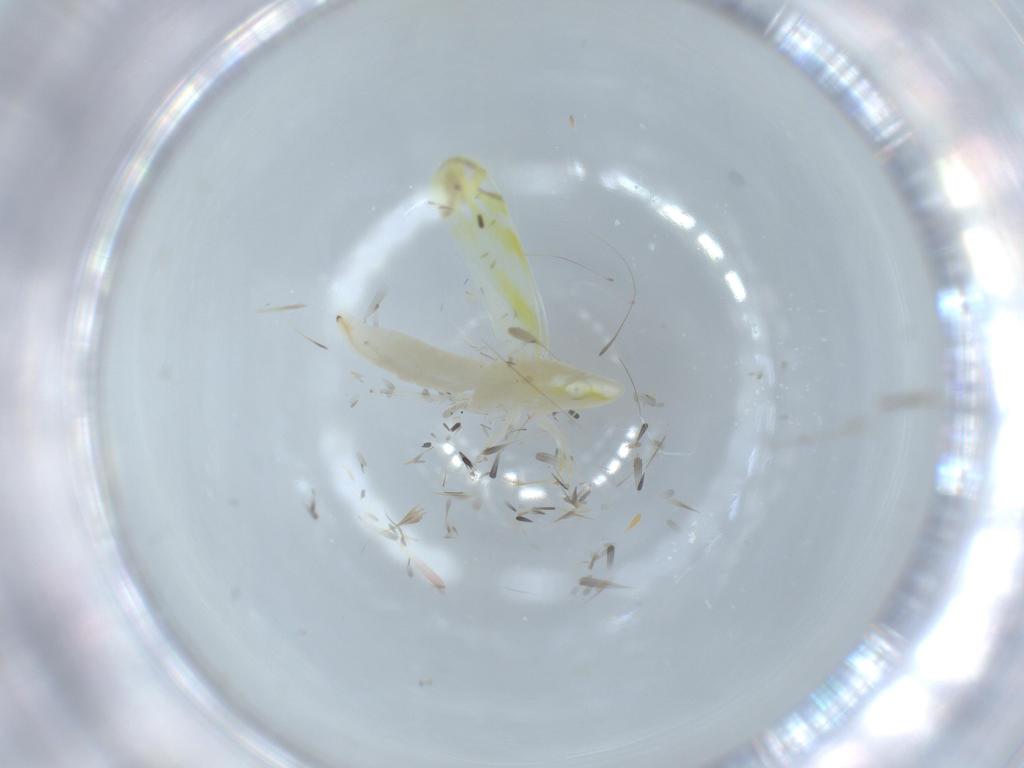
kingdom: Animalia
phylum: Arthropoda
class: Insecta
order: Hemiptera
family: Cicadellidae
